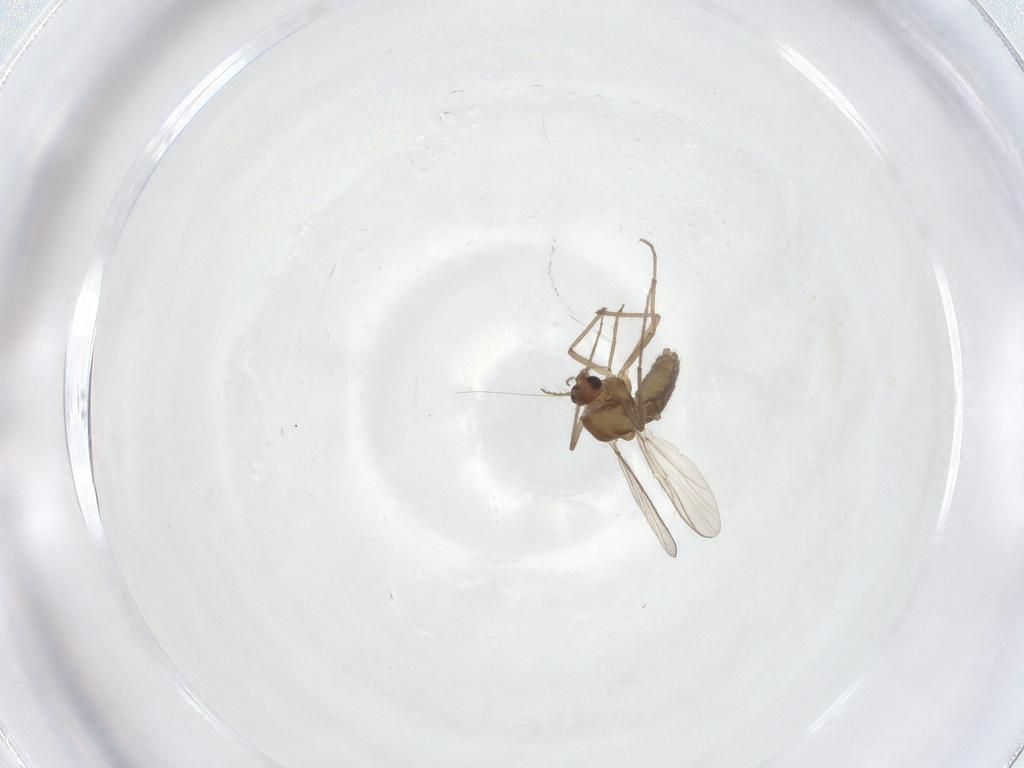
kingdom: Animalia
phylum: Arthropoda
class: Insecta
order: Diptera
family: Chironomidae
